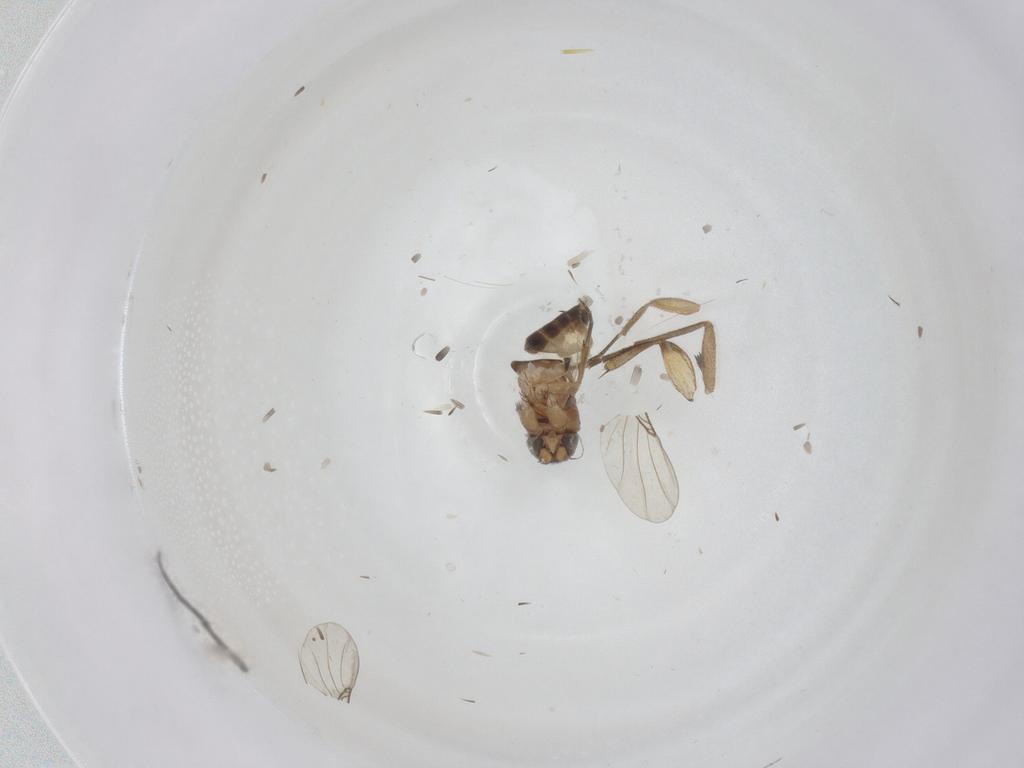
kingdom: Animalia
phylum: Arthropoda
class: Insecta
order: Diptera
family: Phoridae
